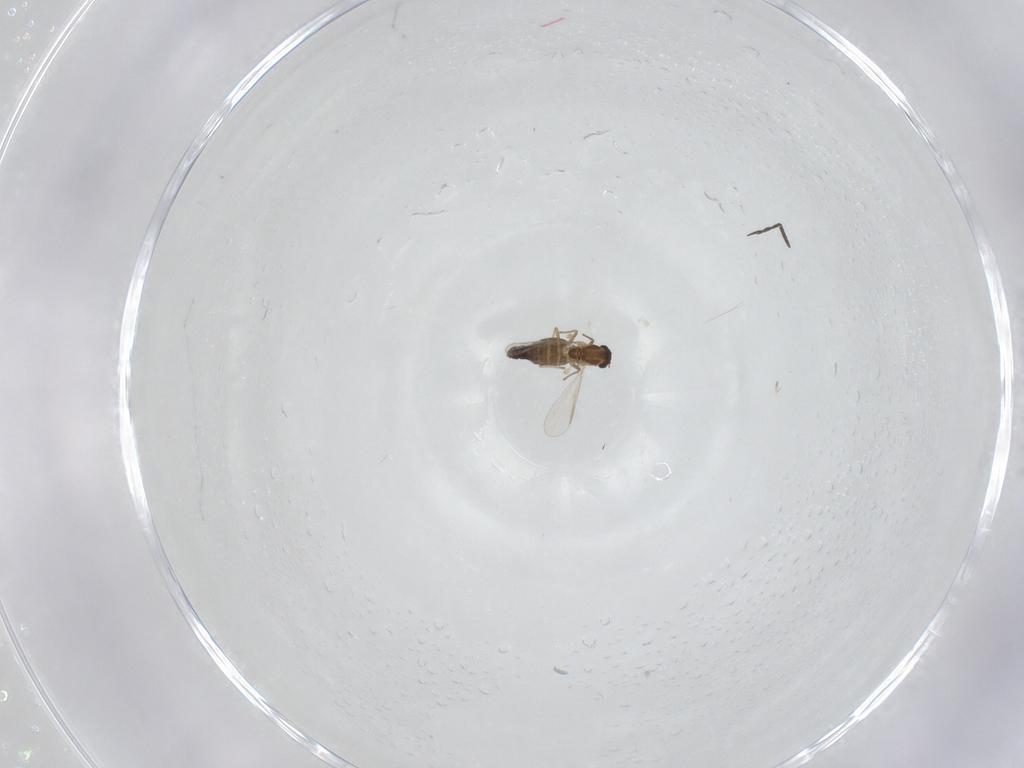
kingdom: Animalia
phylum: Arthropoda
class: Insecta
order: Diptera
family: Chironomidae
